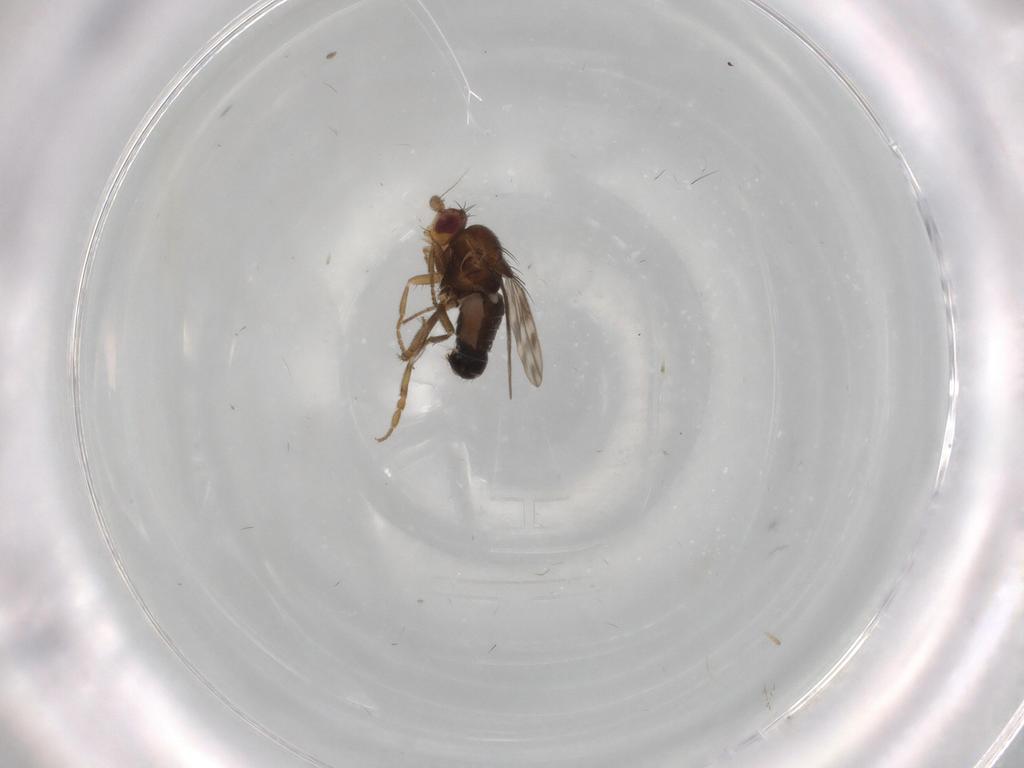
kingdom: Animalia
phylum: Arthropoda
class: Insecta
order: Diptera
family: Sphaeroceridae
